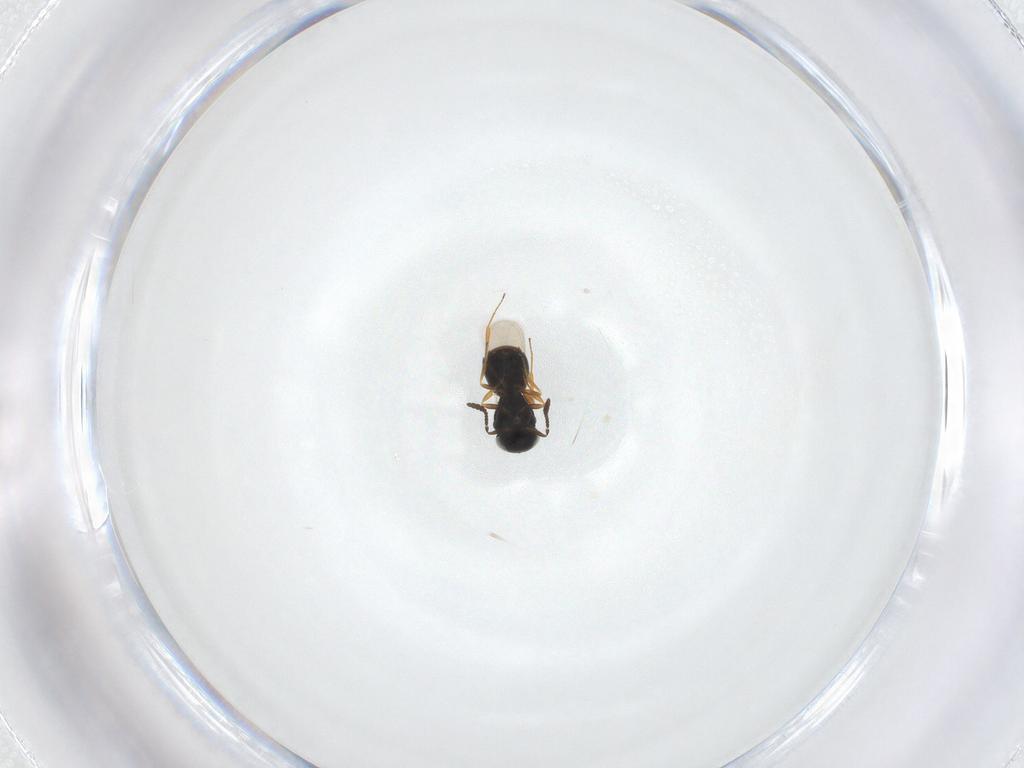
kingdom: Animalia
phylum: Arthropoda
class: Insecta
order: Hymenoptera
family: Scelionidae
